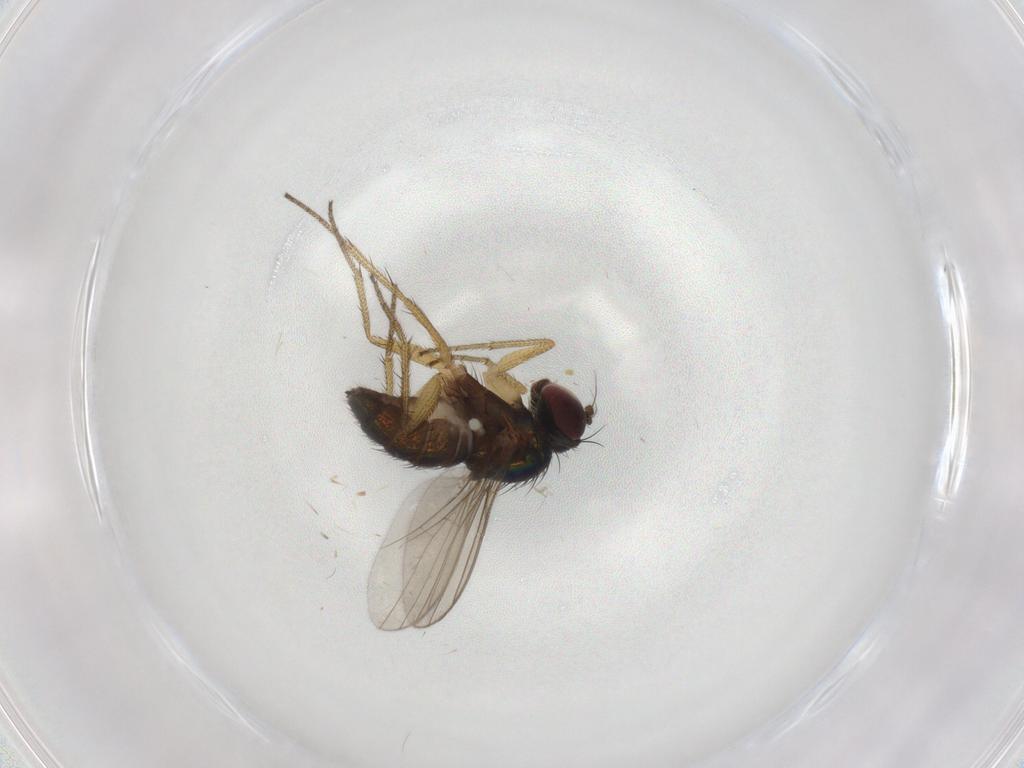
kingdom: Animalia
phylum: Arthropoda
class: Insecta
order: Diptera
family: Chironomidae
